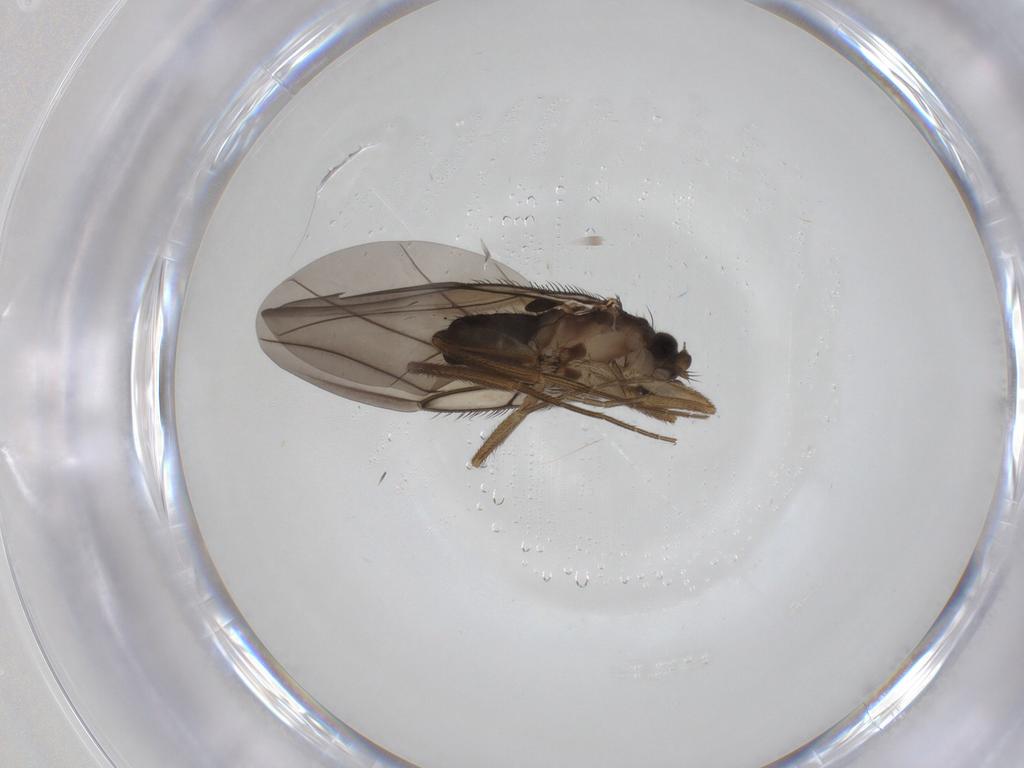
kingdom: Animalia
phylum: Arthropoda
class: Insecta
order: Diptera
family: Phoridae
